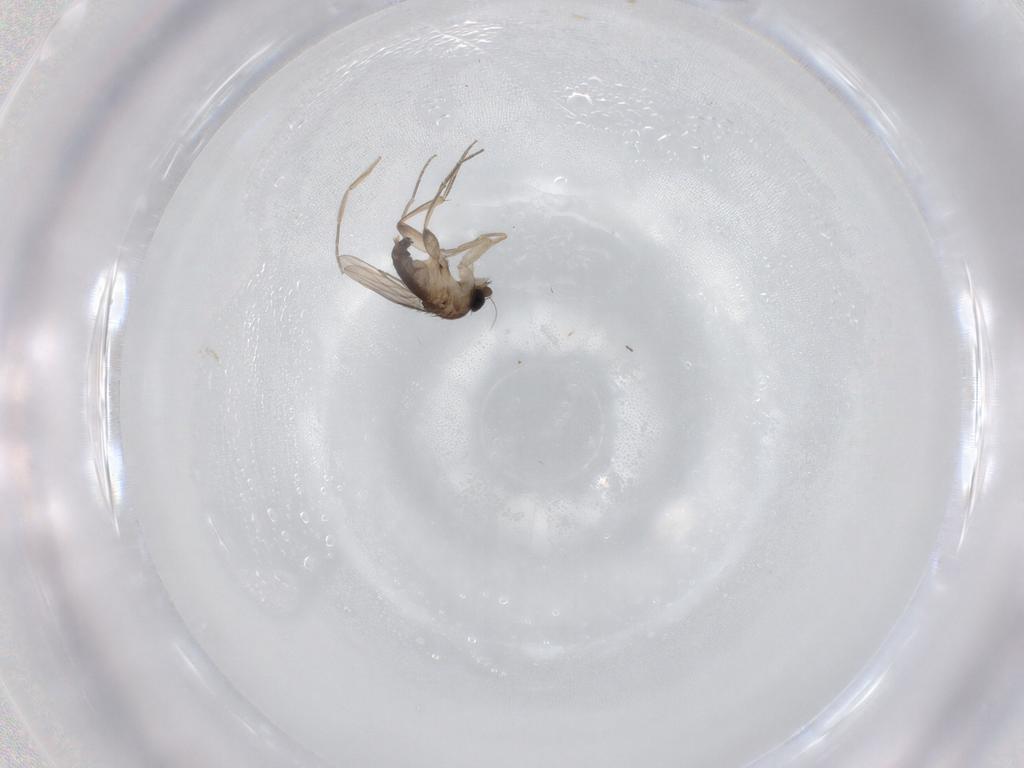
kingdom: Animalia
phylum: Arthropoda
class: Insecta
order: Diptera
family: Phoridae
